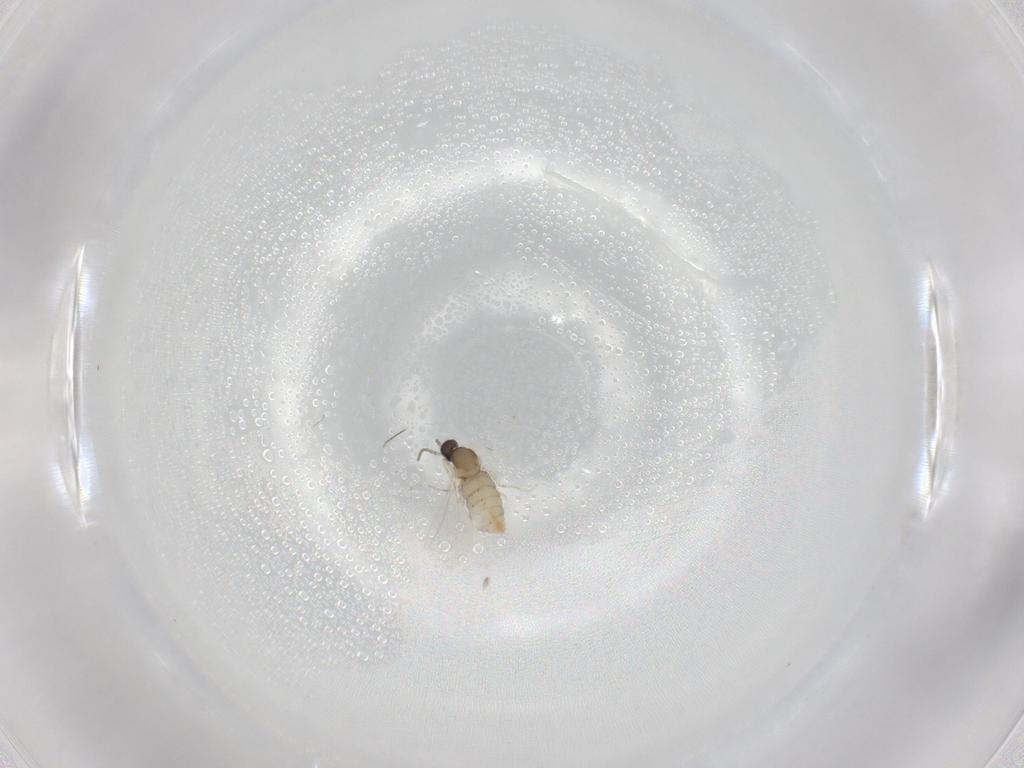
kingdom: Animalia
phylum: Arthropoda
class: Insecta
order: Diptera
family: Cecidomyiidae
